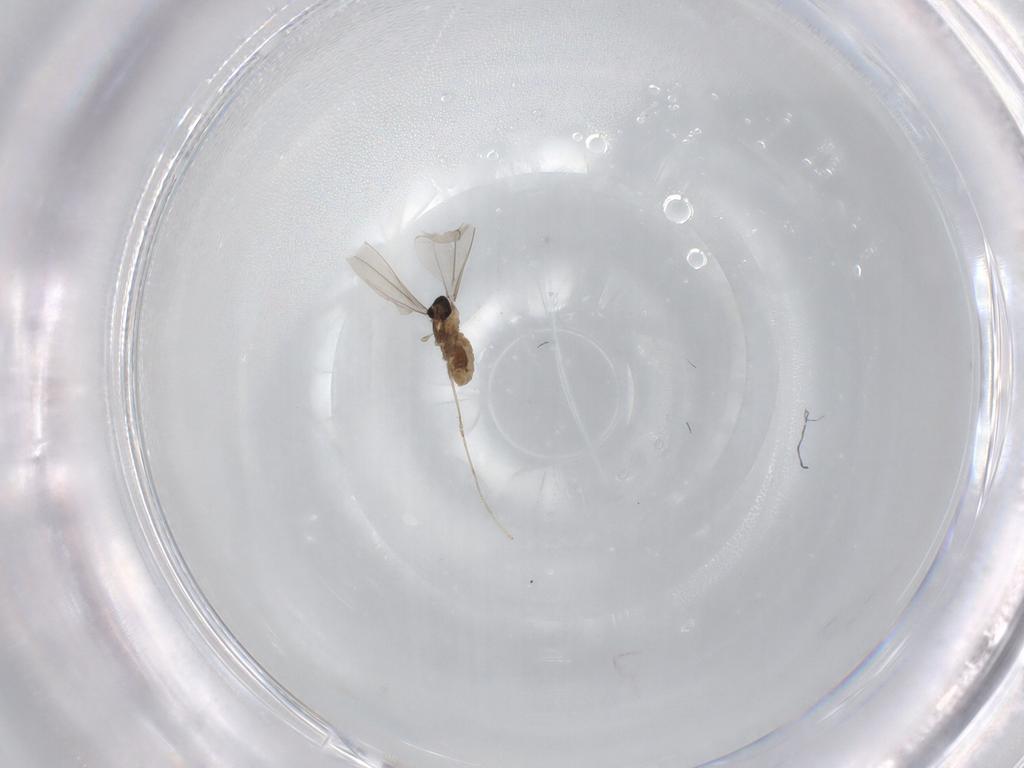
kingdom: Animalia
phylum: Arthropoda
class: Insecta
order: Diptera
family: Cecidomyiidae
